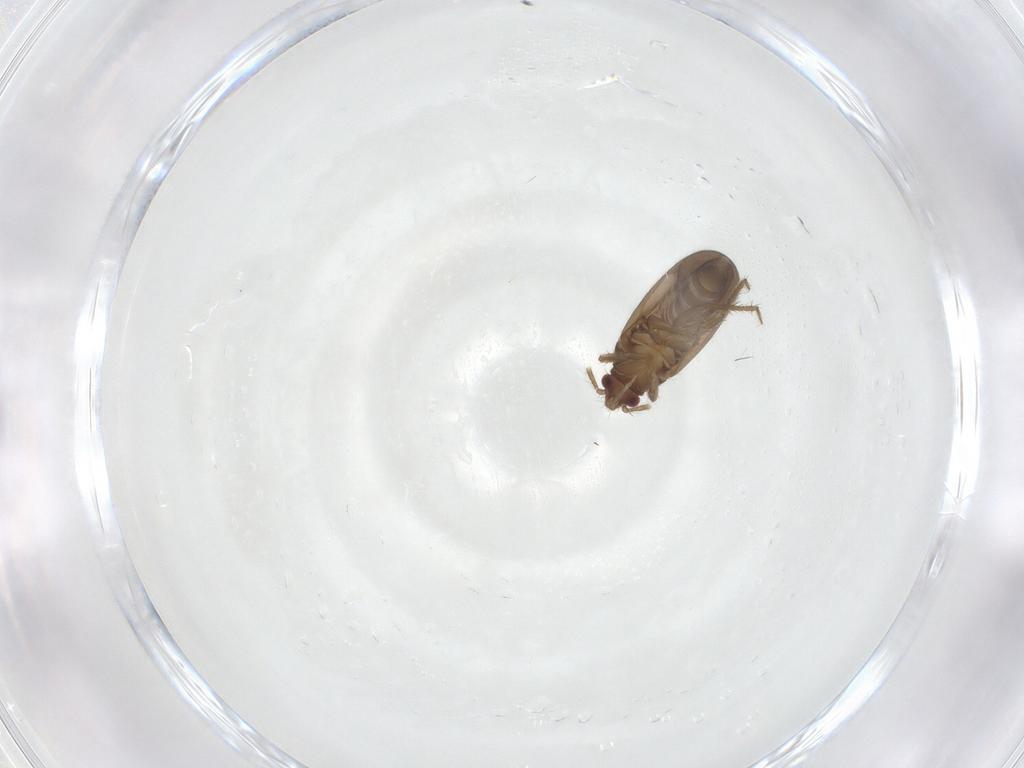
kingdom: Animalia
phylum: Arthropoda
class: Insecta
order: Hemiptera
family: Ceratocombidae
